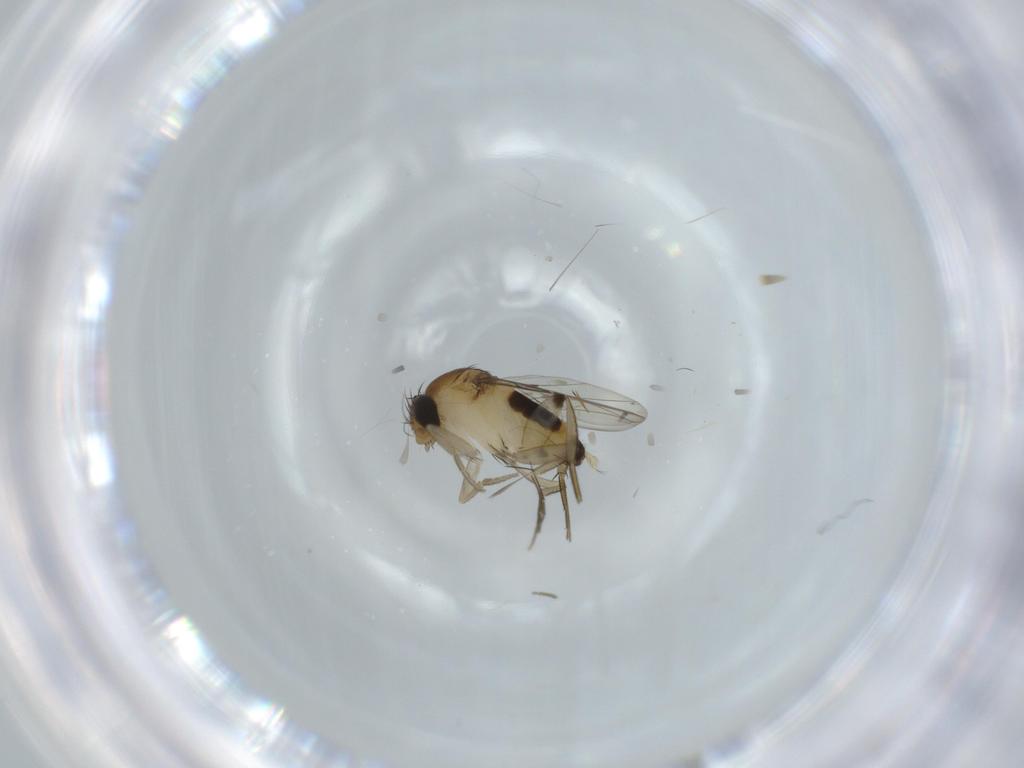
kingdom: Animalia
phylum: Arthropoda
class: Insecta
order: Diptera
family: Phoridae
